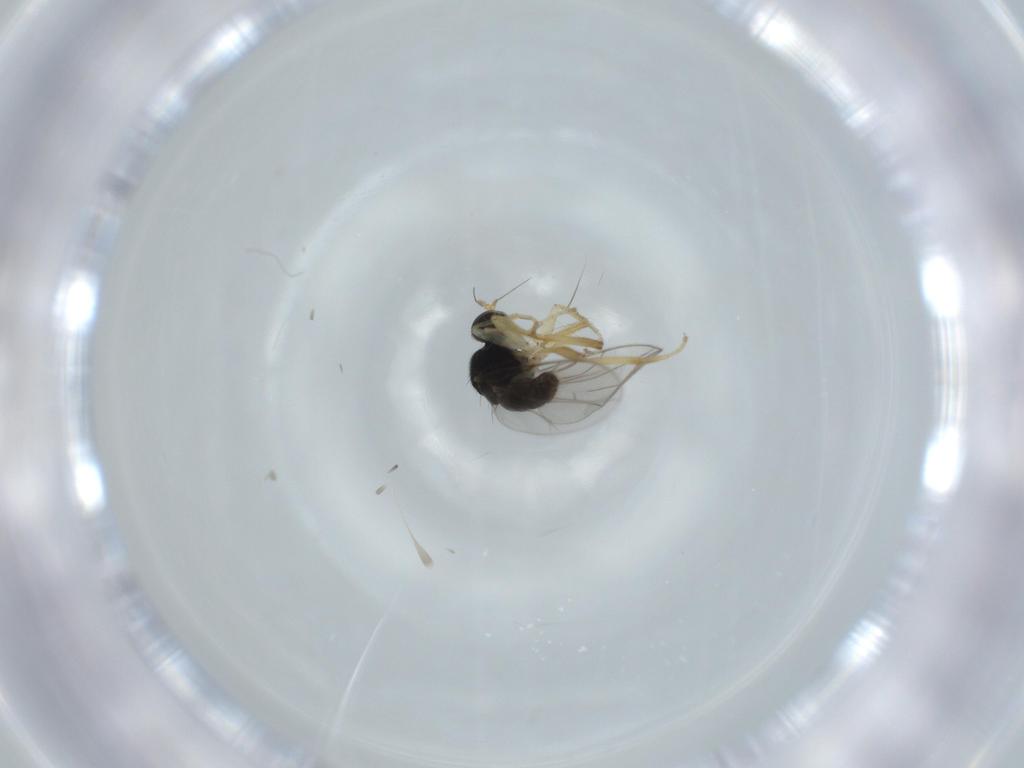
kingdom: Animalia
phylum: Arthropoda
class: Insecta
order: Diptera
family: Hybotidae
